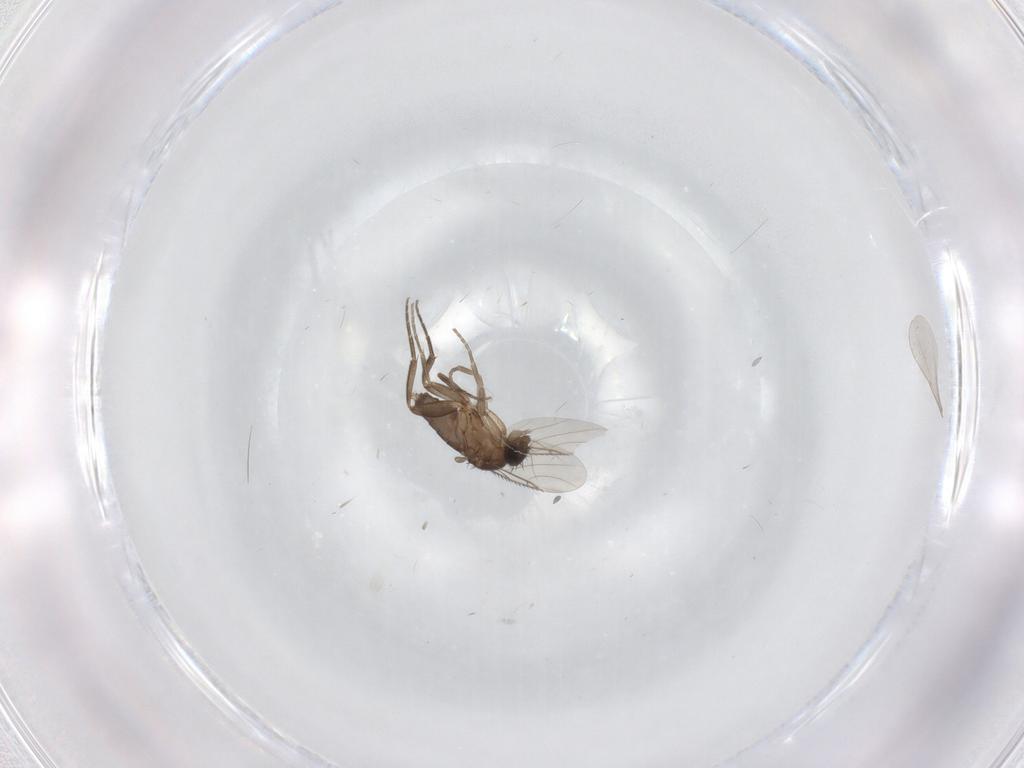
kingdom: Animalia
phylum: Arthropoda
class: Insecta
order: Diptera
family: Phoridae
